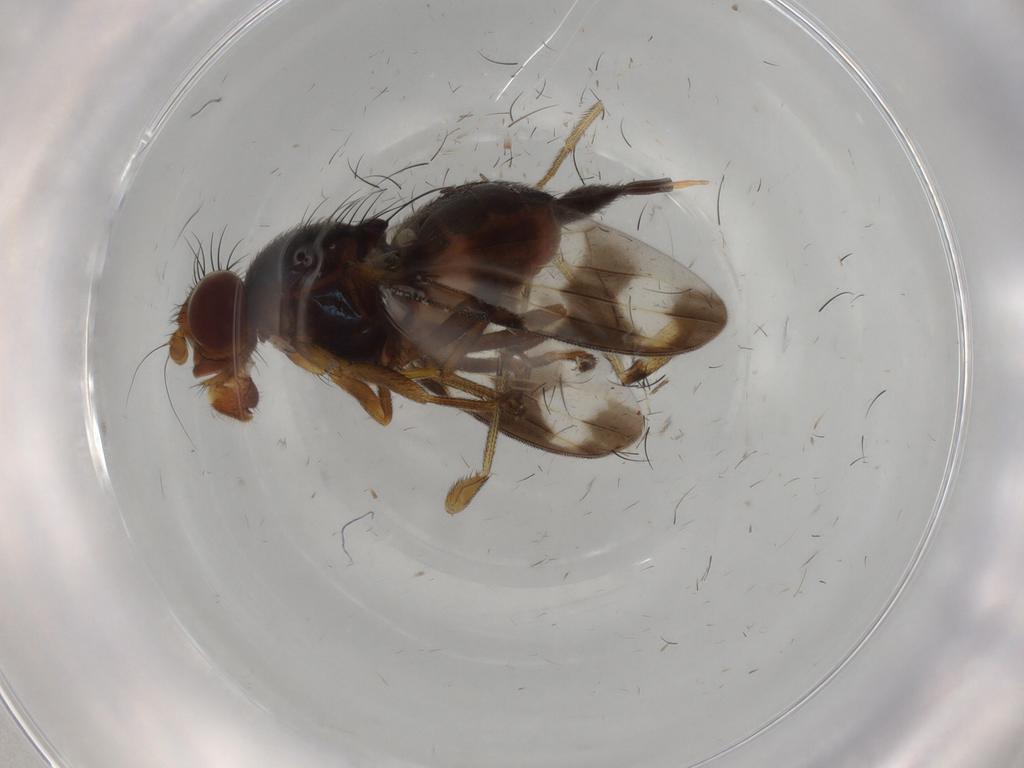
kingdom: Animalia
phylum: Arthropoda
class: Insecta
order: Diptera
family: Dolichopodidae
